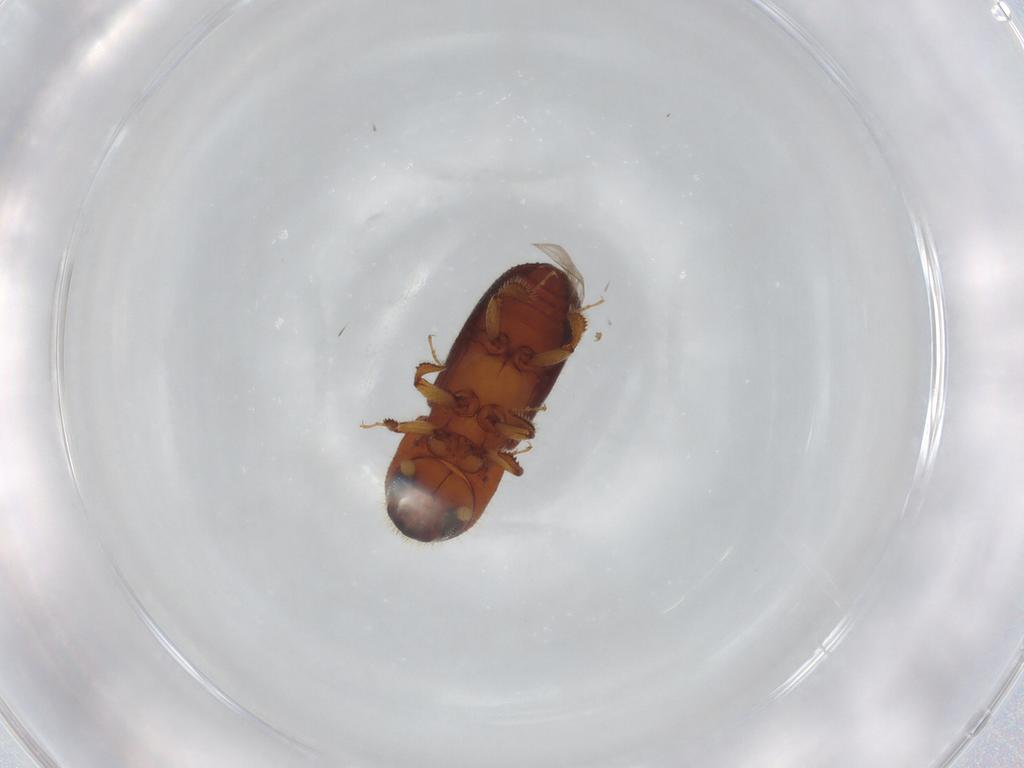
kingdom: Animalia
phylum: Arthropoda
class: Insecta
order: Coleoptera
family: Curculionidae
